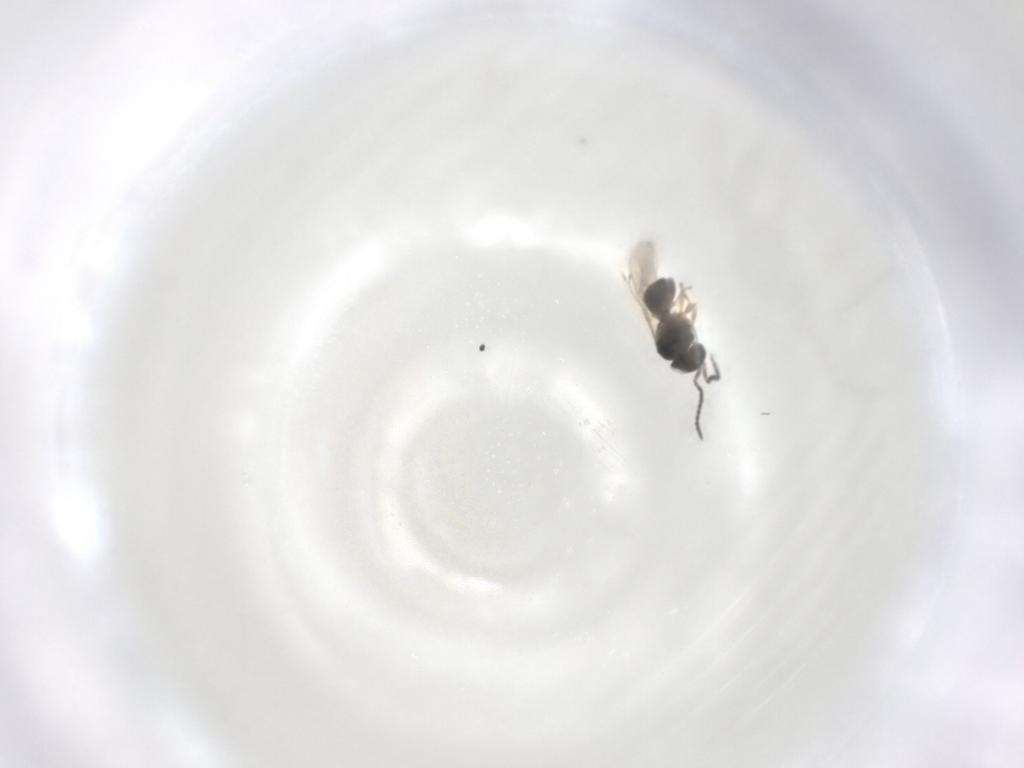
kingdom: Animalia
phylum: Arthropoda
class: Insecta
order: Hymenoptera
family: Scelionidae
